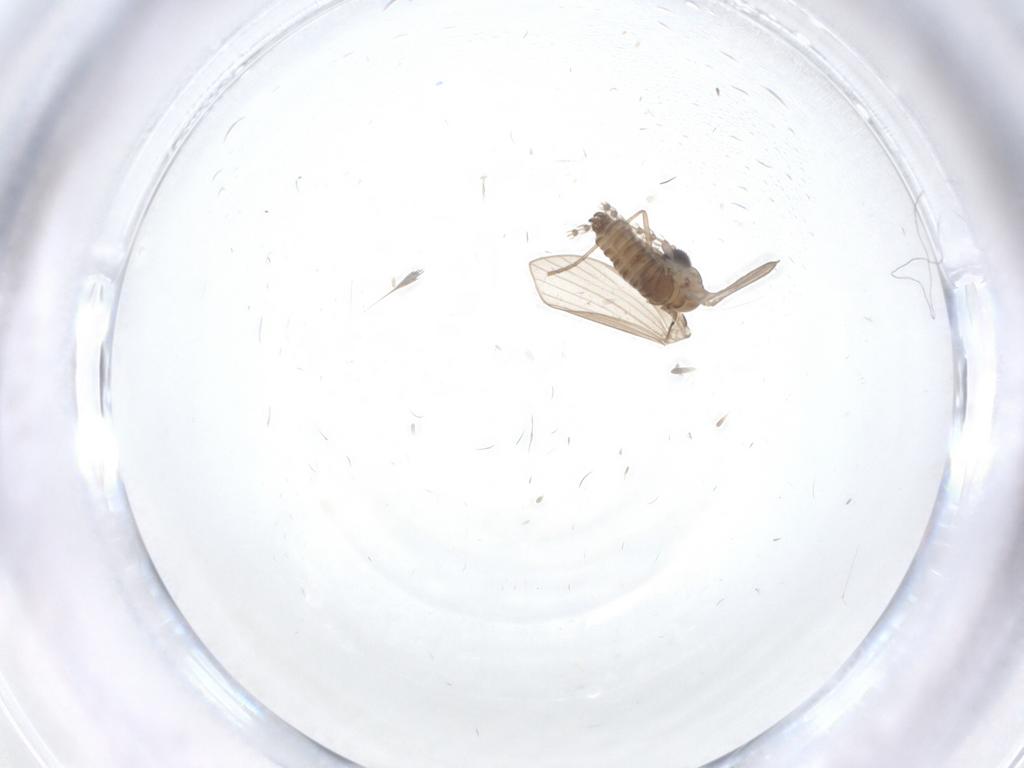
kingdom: Animalia
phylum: Arthropoda
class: Insecta
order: Diptera
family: Psychodidae
